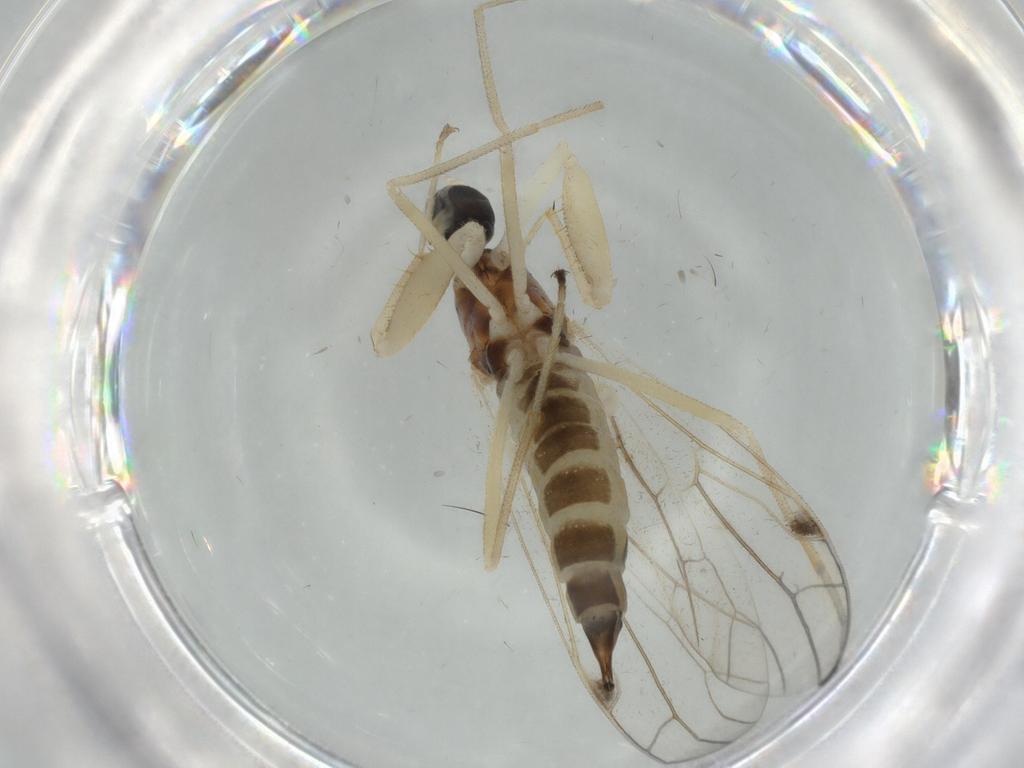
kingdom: Animalia
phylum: Arthropoda
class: Insecta
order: Diptera
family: Empididae
